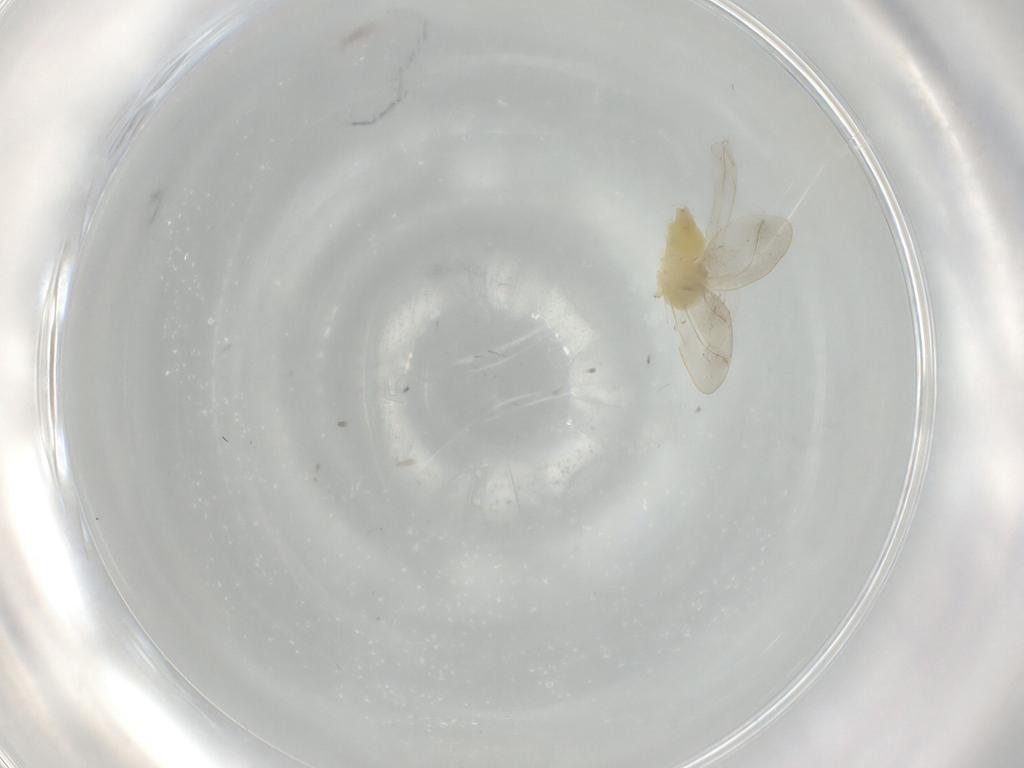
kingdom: Animalia
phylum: Arthropoda
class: Insecta
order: Hemiptera
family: Aleyrodidae
